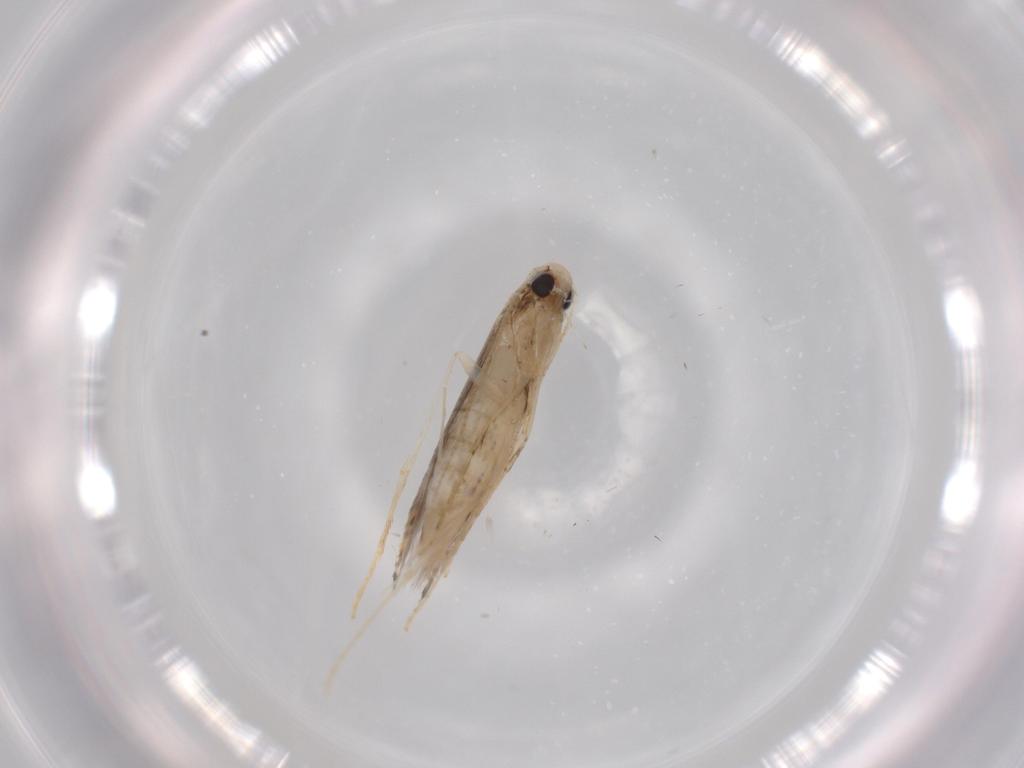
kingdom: Animalia
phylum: Arthropoda
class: Insecta
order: Lepidoptera
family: Gracillariidae
